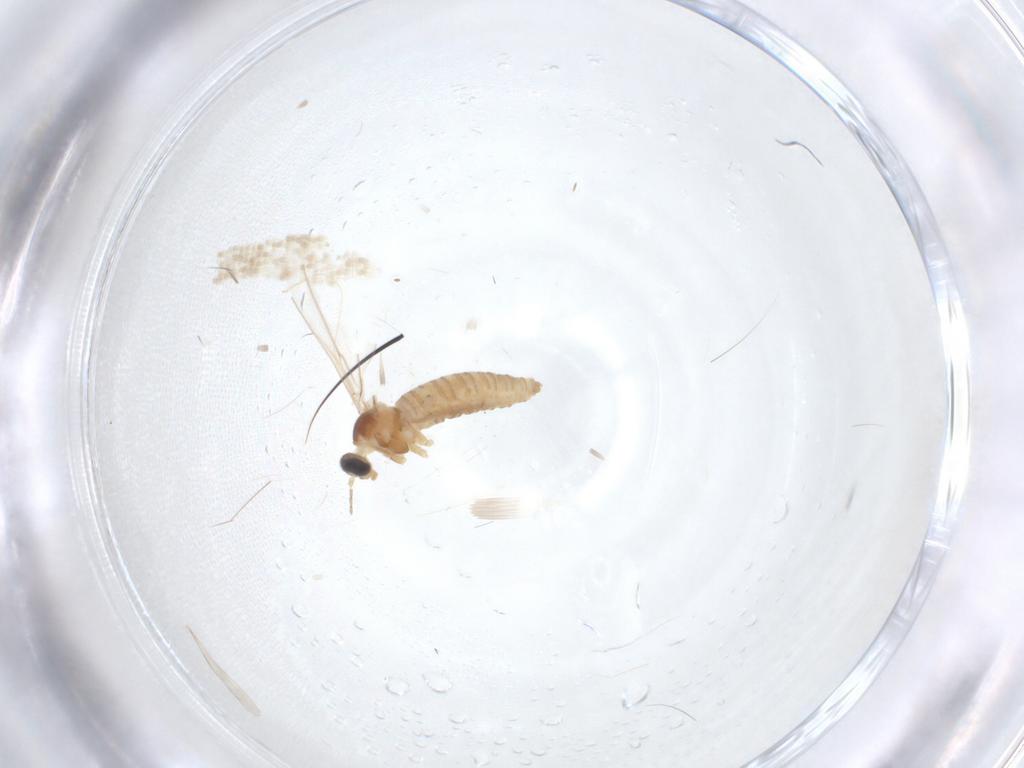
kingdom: Animalia
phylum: Arthropoda
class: Insecta
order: Diptera
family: Cecidomyiidae
